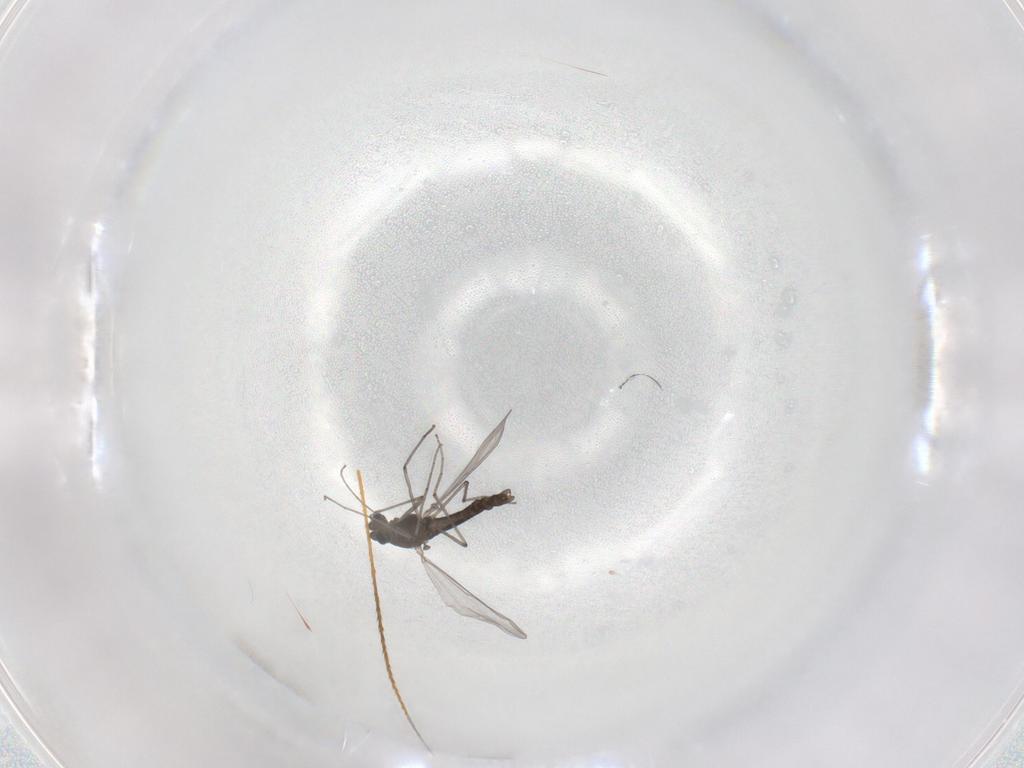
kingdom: Animalia
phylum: Arthropoda
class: Insecta
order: Diptera
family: Chironomidae
